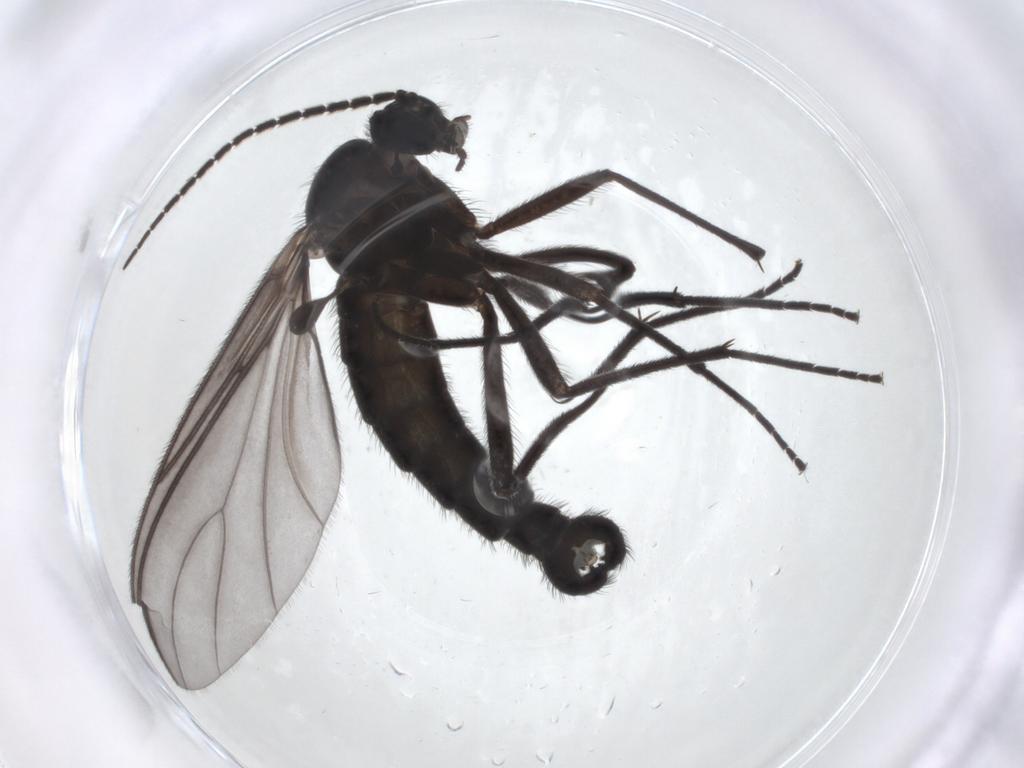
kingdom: Animalia
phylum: Arthropoda
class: Insecta
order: Diptera
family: Phoridae
